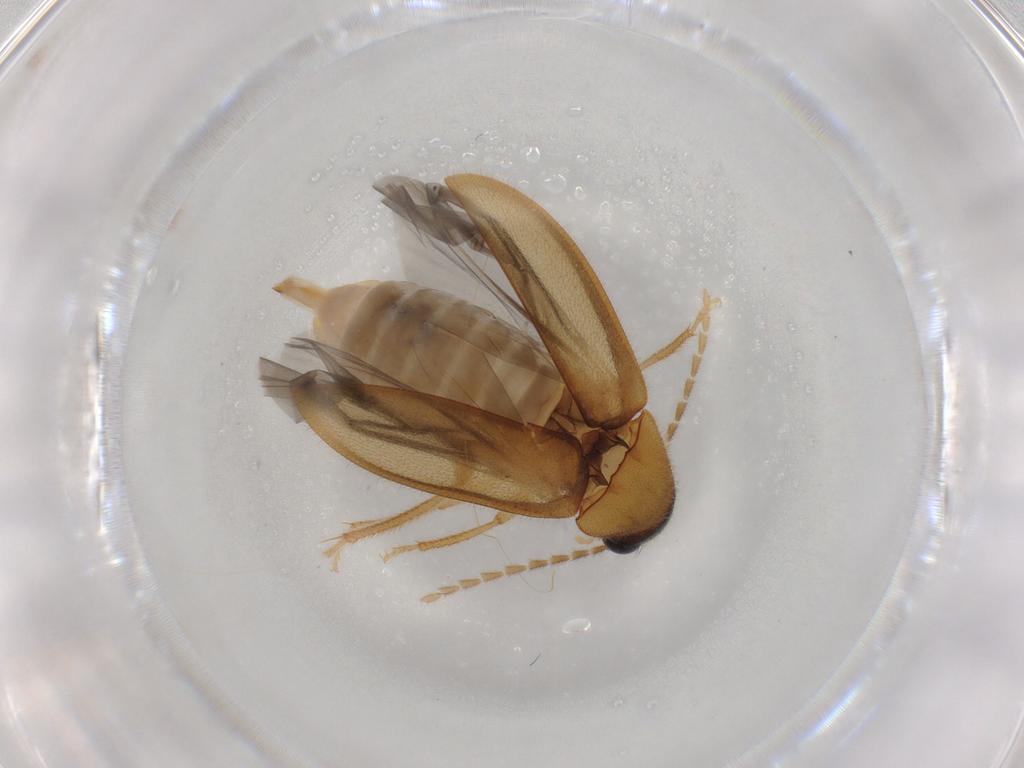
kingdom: Animalia
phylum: Arthropoda
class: Insecta
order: Coleoptera
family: Ptilodactylidae
